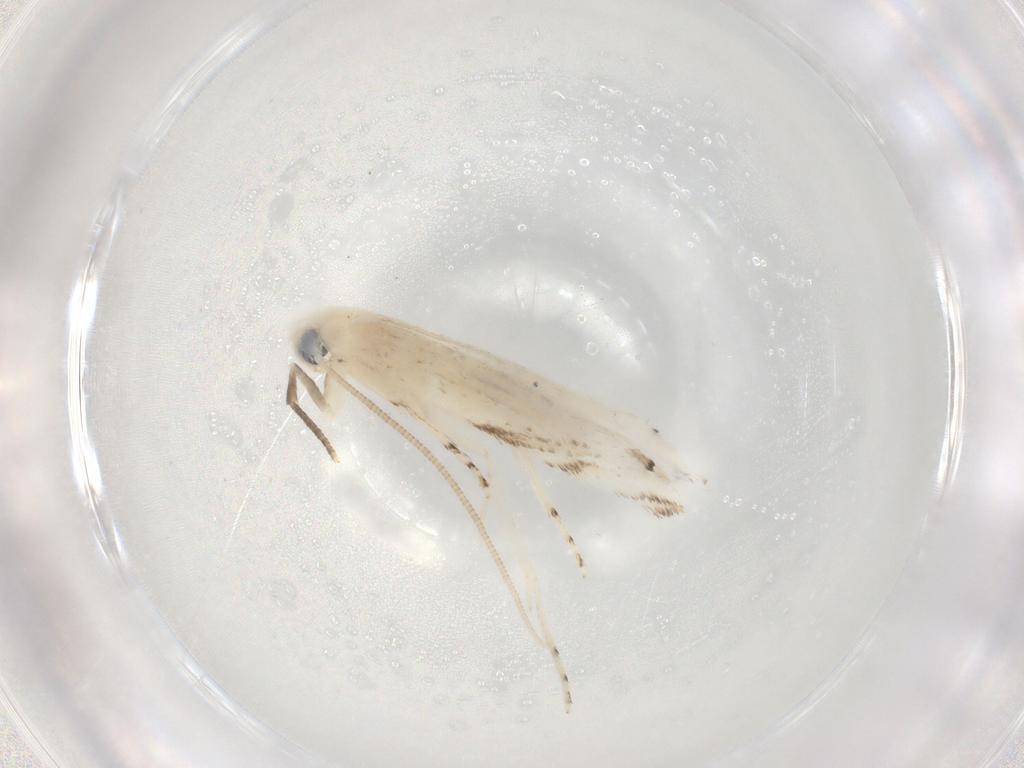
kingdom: Animalia
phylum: Arthropoda
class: Insecta
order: Lepidoptera
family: Lyonetiidae
